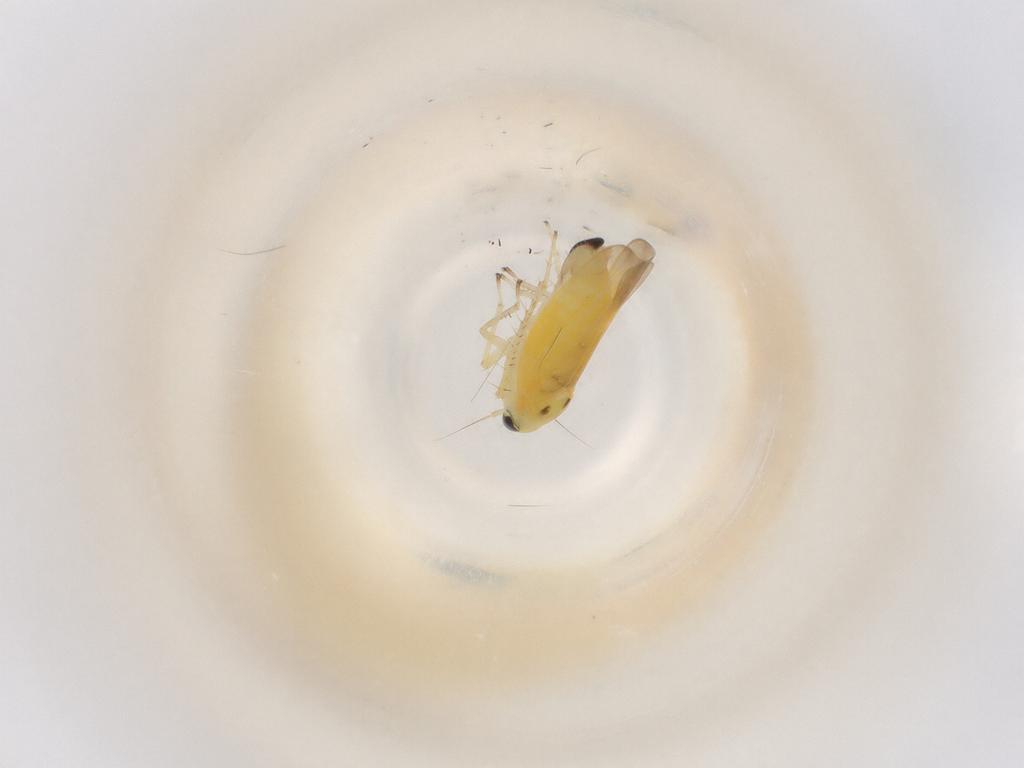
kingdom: Animalia
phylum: Arthropoda
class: Insecta
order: Hemiptera
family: Cicadellidae
